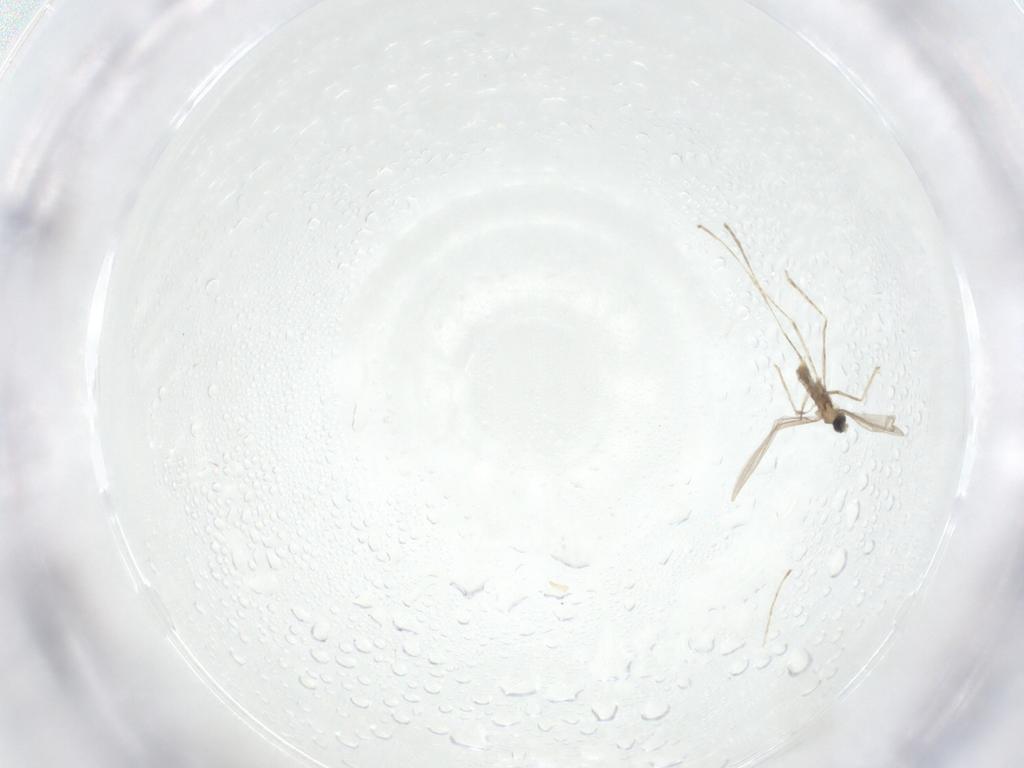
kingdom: Animalia
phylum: Arthropoda
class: Insecta
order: Diptera
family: Cecidomyiidae
